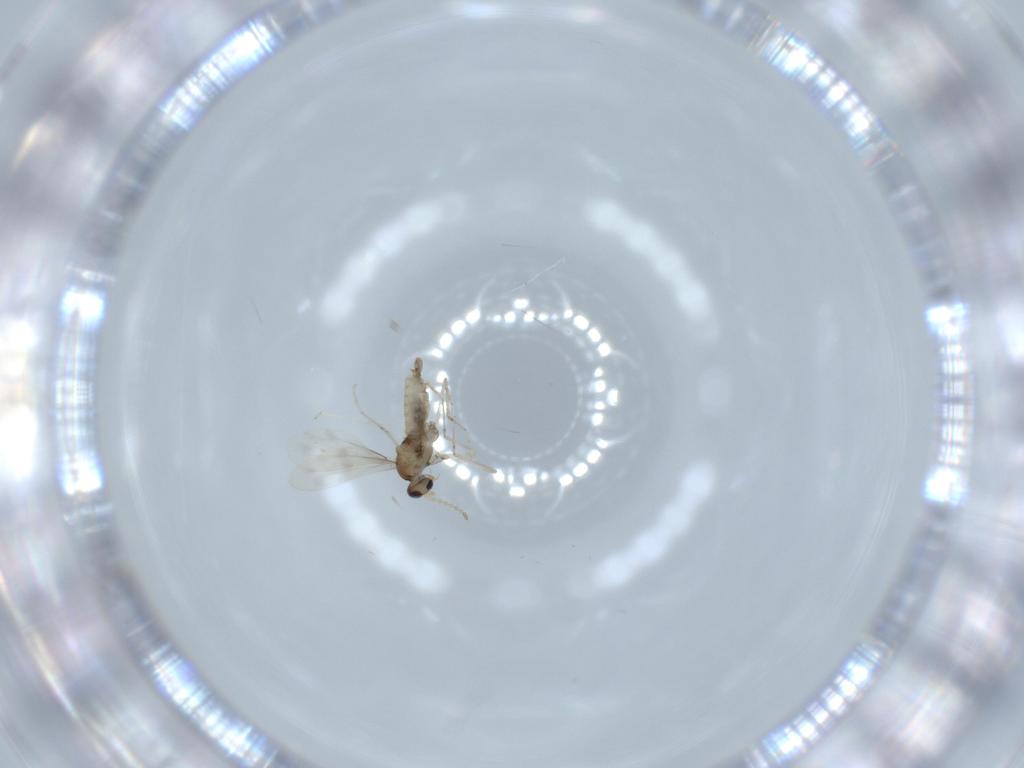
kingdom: Animalia
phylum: Arthropoda
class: Insecta
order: Diptera
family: Cecidomyiidae
